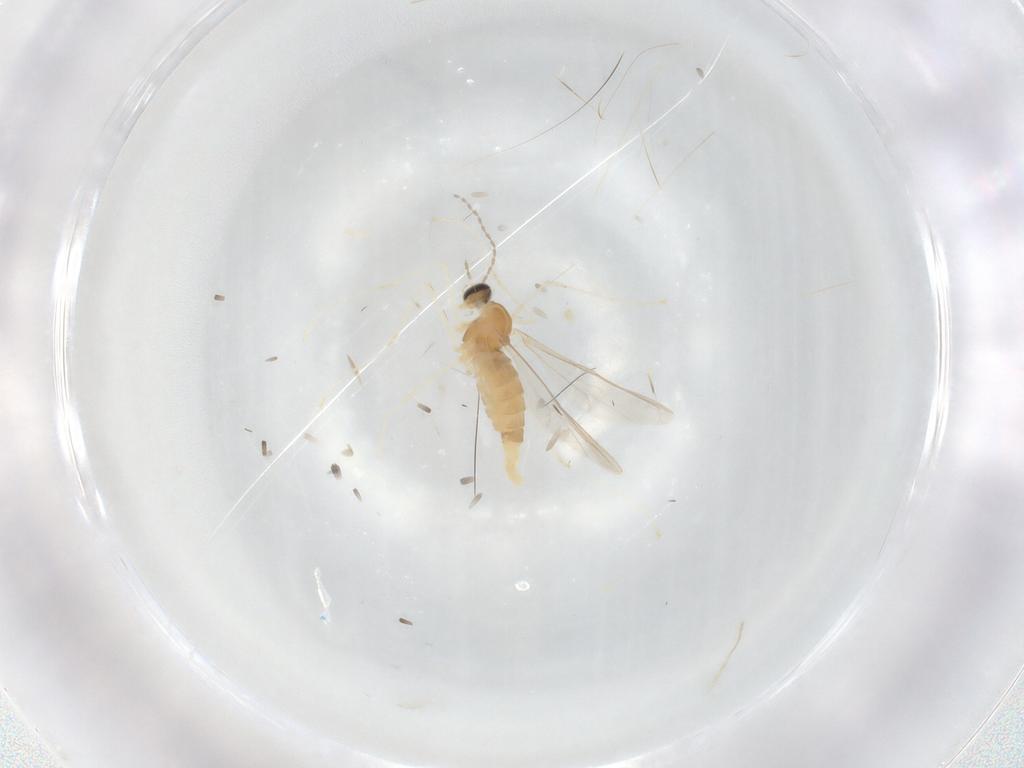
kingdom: Animalia
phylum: Arthropoda
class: Insecta
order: Diptera
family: Cecidomyiidae
